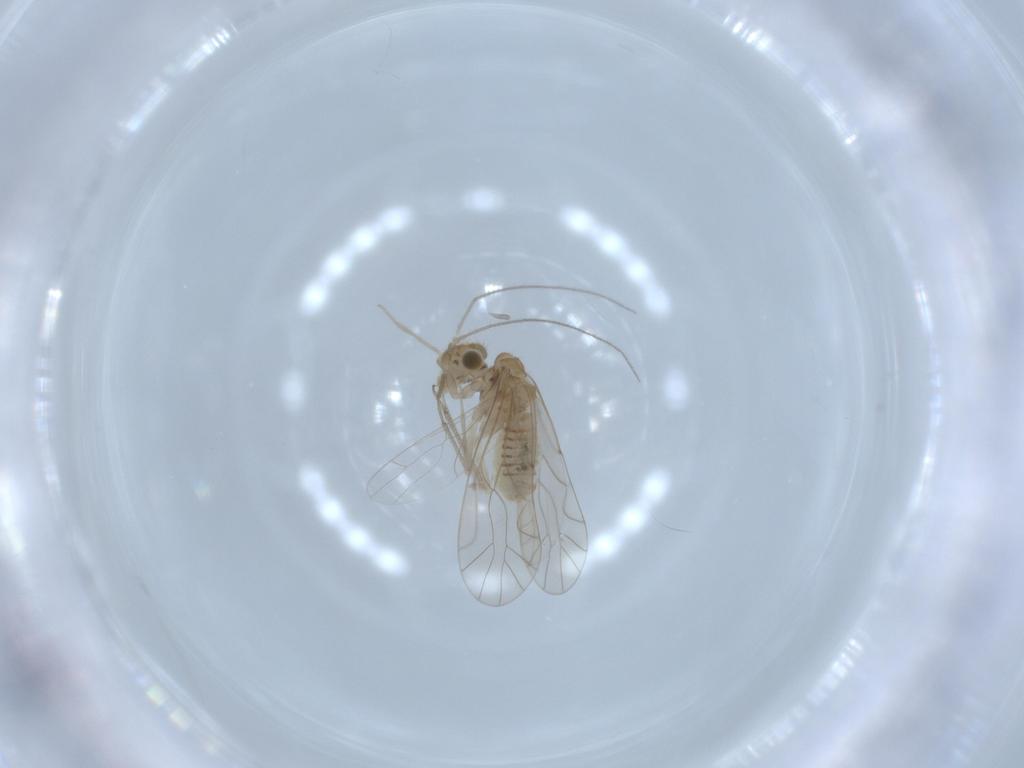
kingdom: Animalia
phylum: Arthropoda
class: Insecta
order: Psocodea
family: Lachesillidae
